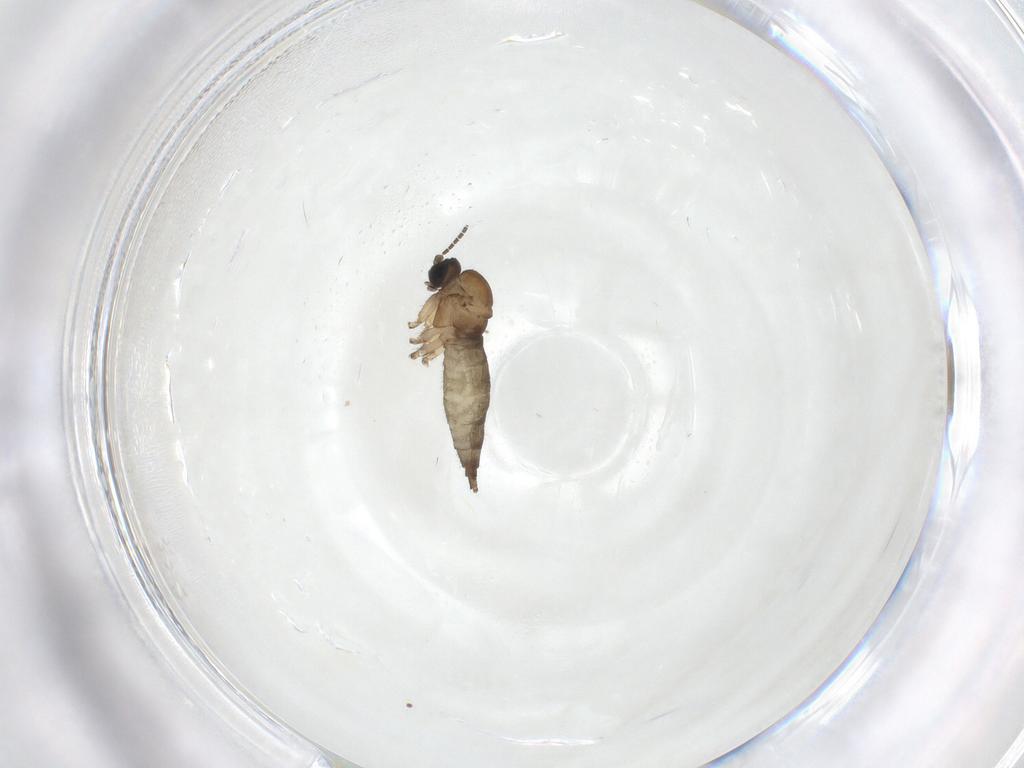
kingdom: Animalia
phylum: Arthropoda
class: Insecta
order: Diptera
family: Sciaridae
